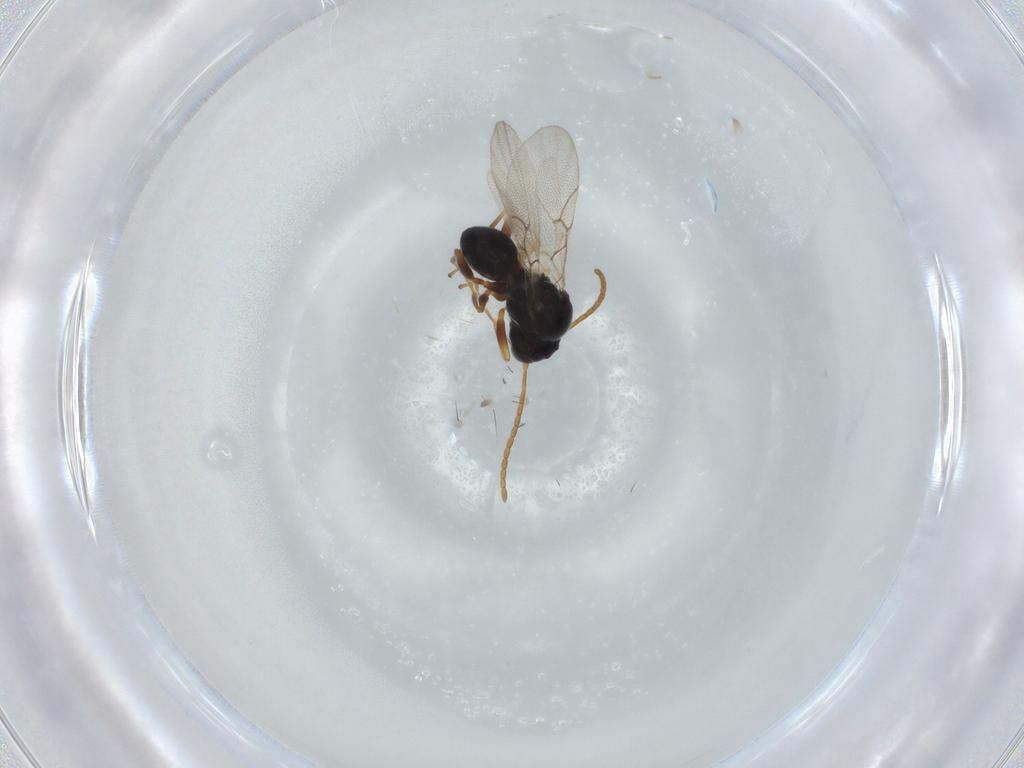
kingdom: Animalia
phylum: Arthropoda
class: Insecta
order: Hymenoptera
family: Figitidae
